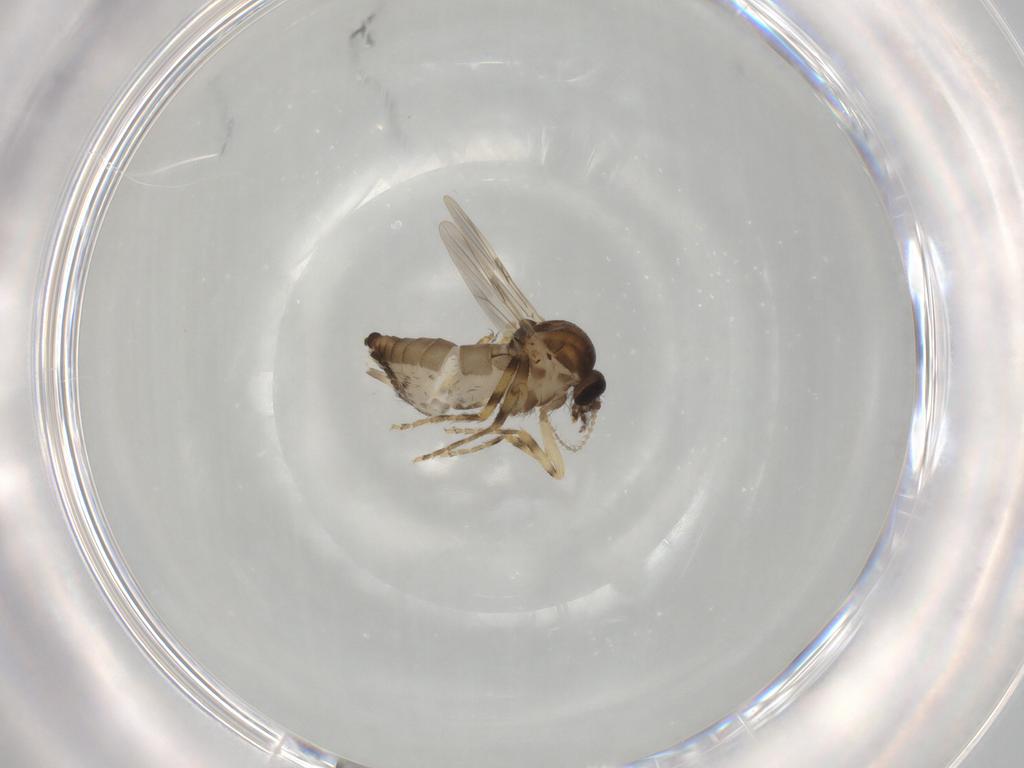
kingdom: Animalia
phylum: Arthropoda
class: Insecta
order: Diptera
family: Ceratopogonidae
